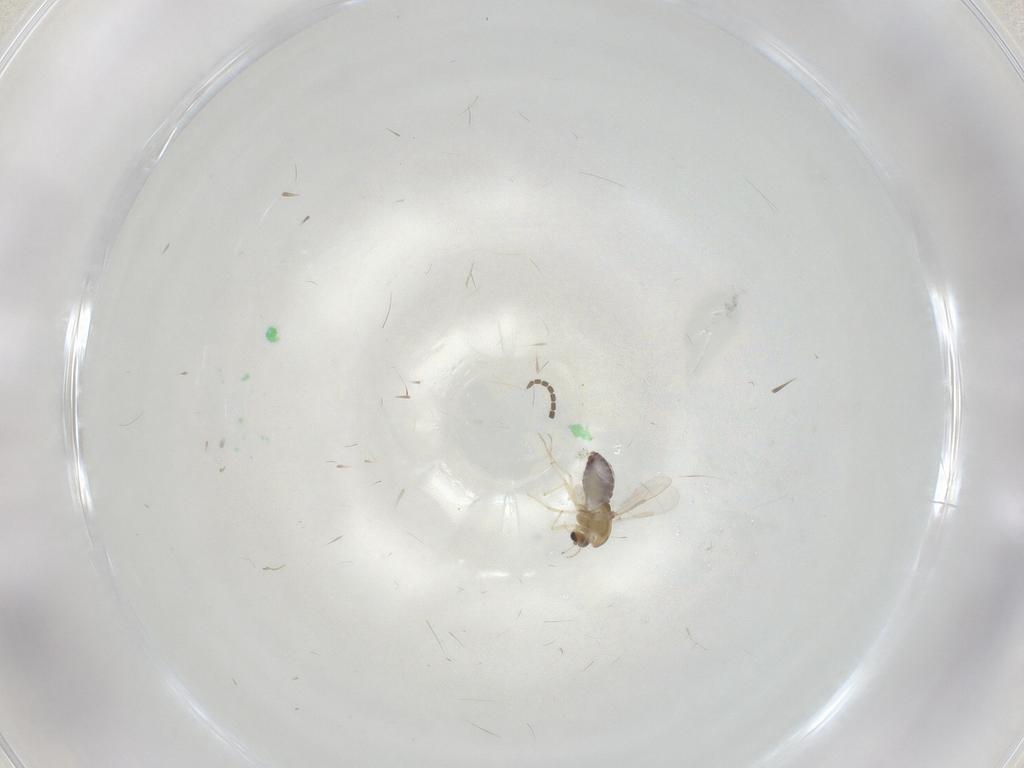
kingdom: Animalia
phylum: Arthropoda
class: Insecta
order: Diptera
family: Chironomidae
